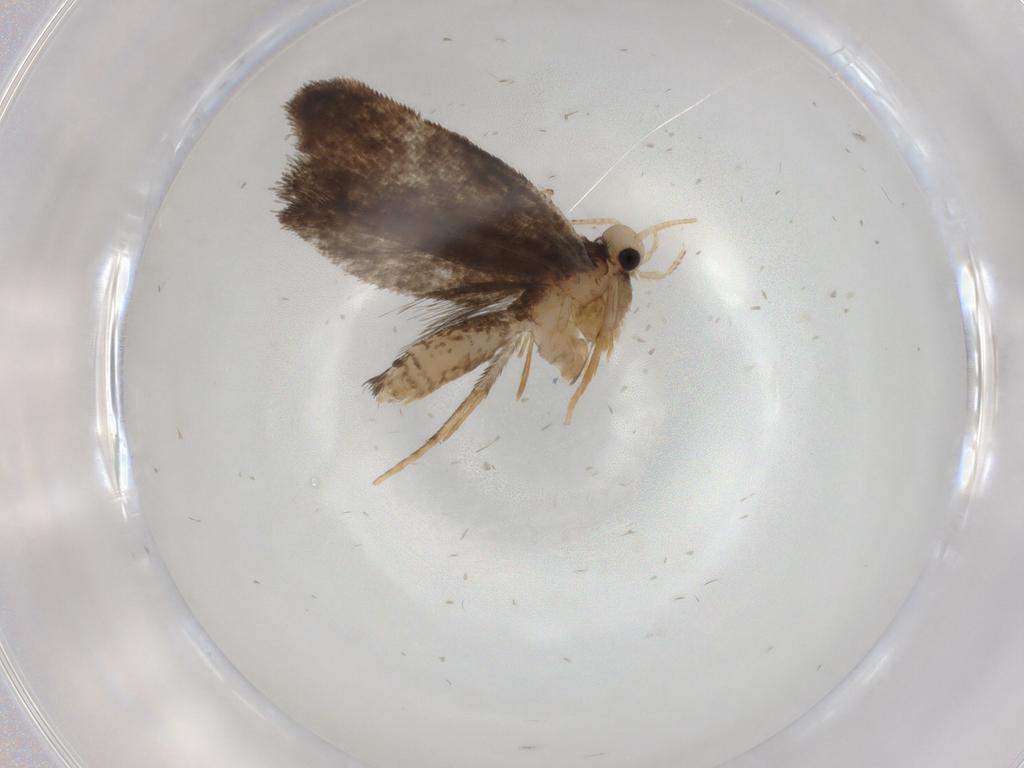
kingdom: Animalia
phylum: Arthropoda
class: Insecta
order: Lepidoptera
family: Psychidae
